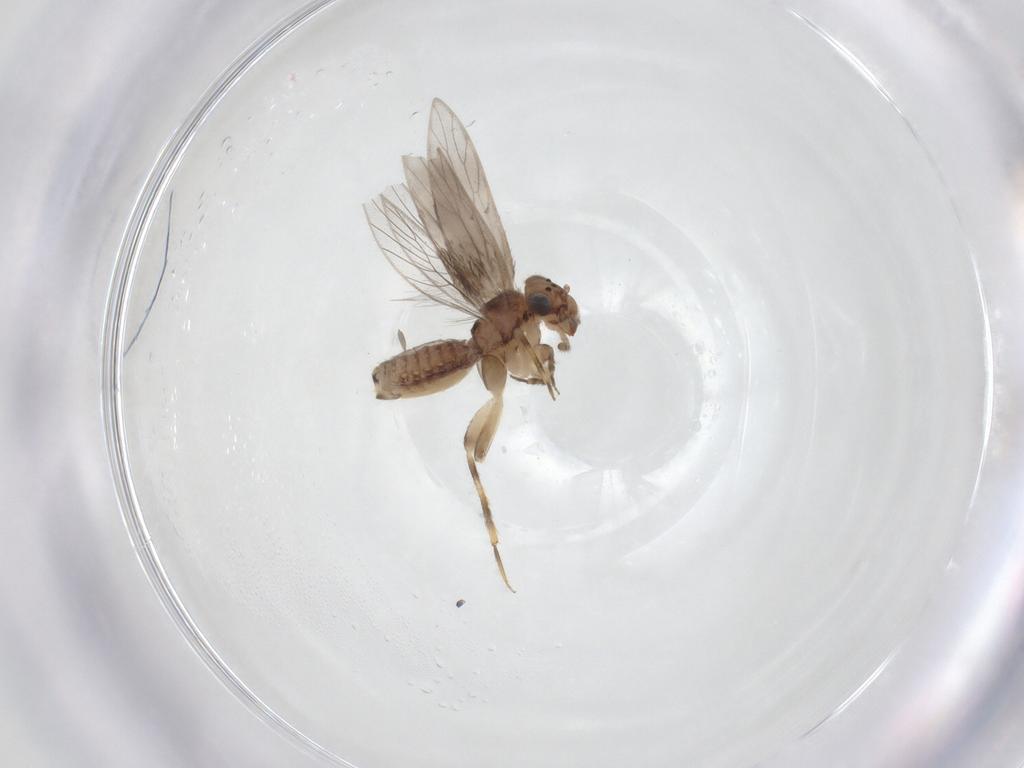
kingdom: Animalia
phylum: Arthropoda
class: Insecta
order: Psocodea
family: Lepidopsocidae
